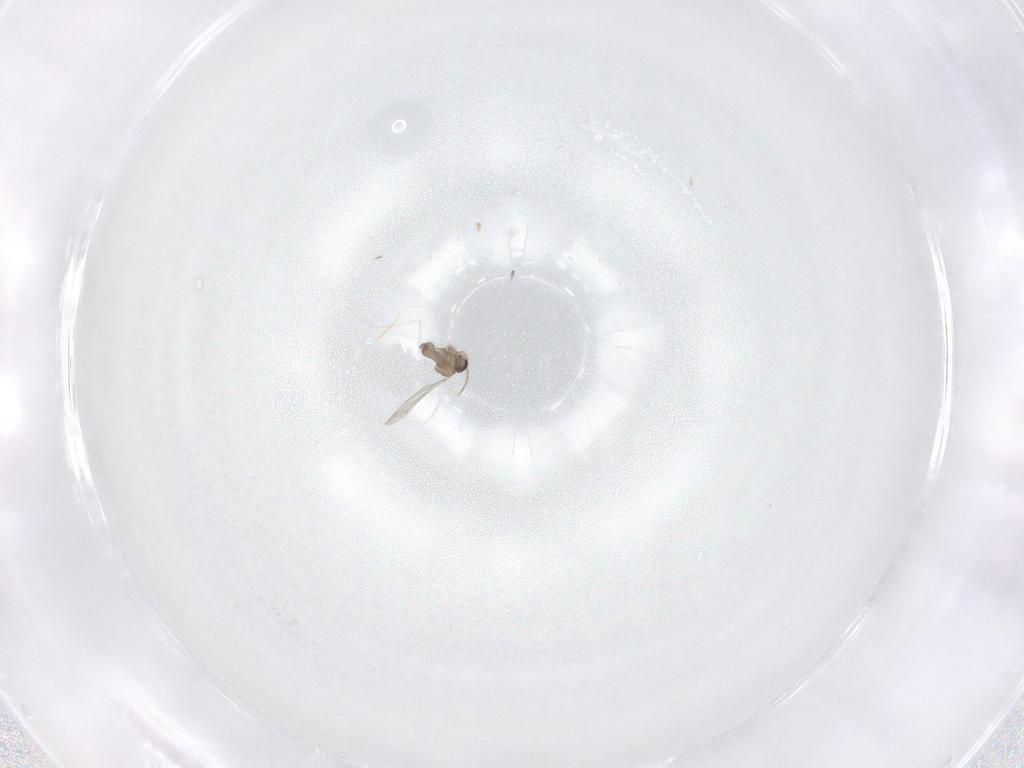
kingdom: Animalia
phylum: Arthropoda
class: Insecta
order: Diptera
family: Cecidomyiidae
